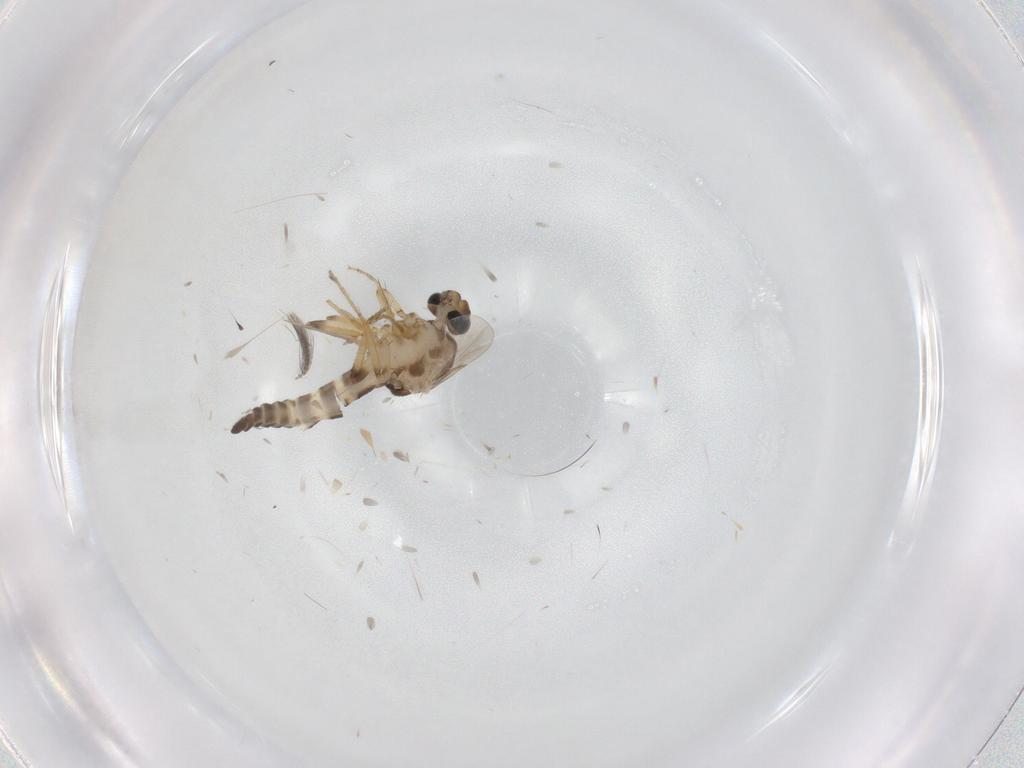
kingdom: Animalia
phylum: Arthropoda
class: Insecta
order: Diptera
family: Ceratopogonidae
